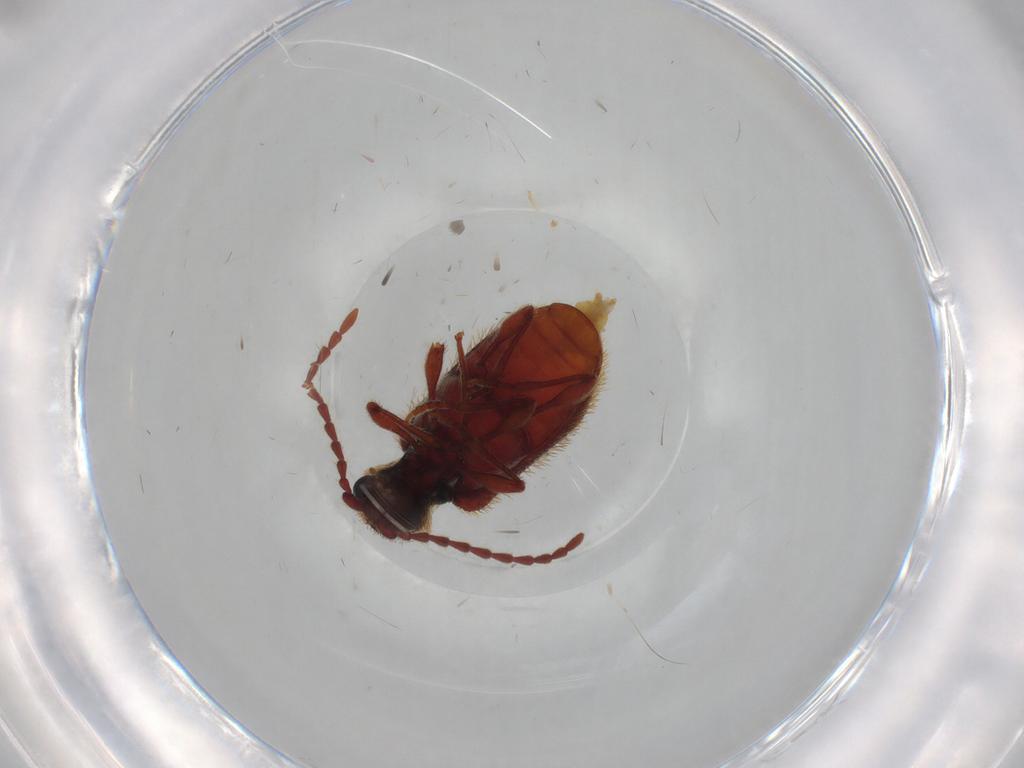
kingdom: Animalia
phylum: Arthropoda
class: Insecta
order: Coleoptera
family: Ptinidae
